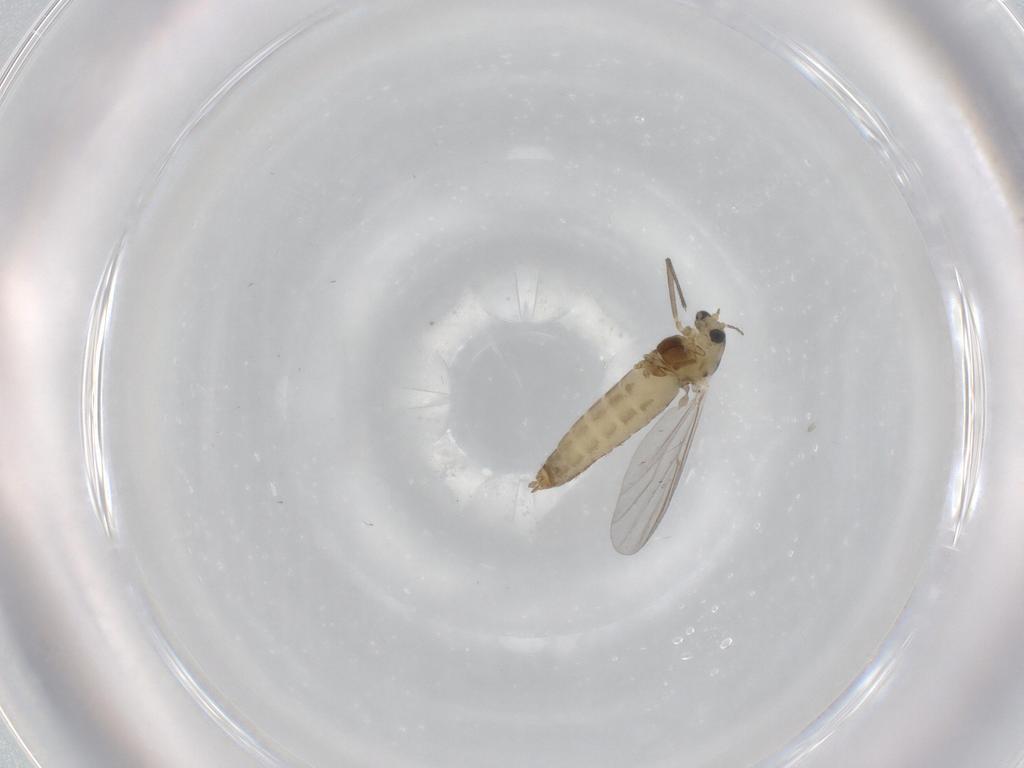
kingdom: Animalia
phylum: Arthropoda
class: Insecta
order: Diptera
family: Chironomidae
